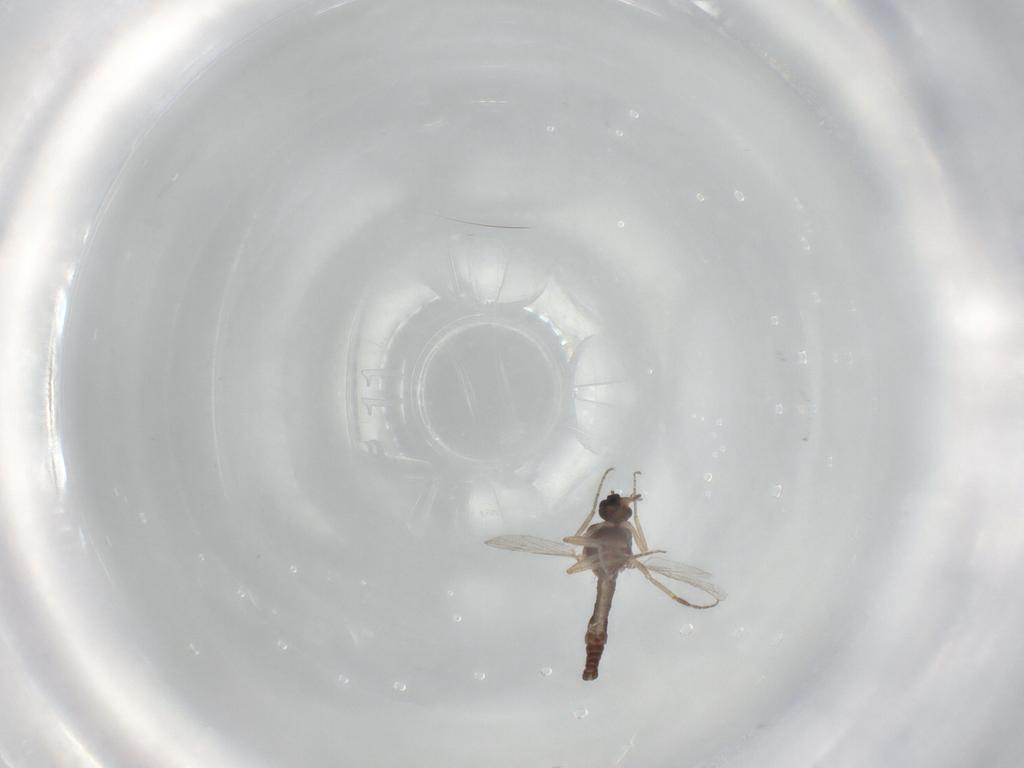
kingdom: Animalia
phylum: Arthropoda
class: Insecta
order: Diptera
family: Ceratopogonidae
